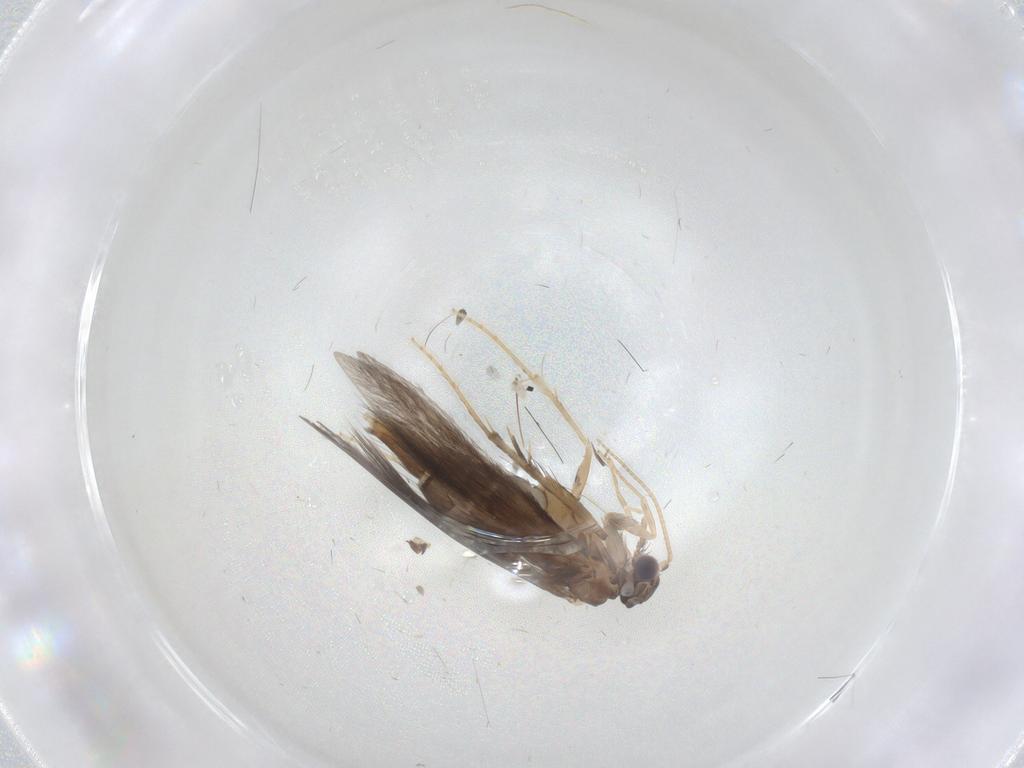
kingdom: Animalia
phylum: Arthropoda
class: Insecta
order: Trichoptera
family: Hydroptilidae
